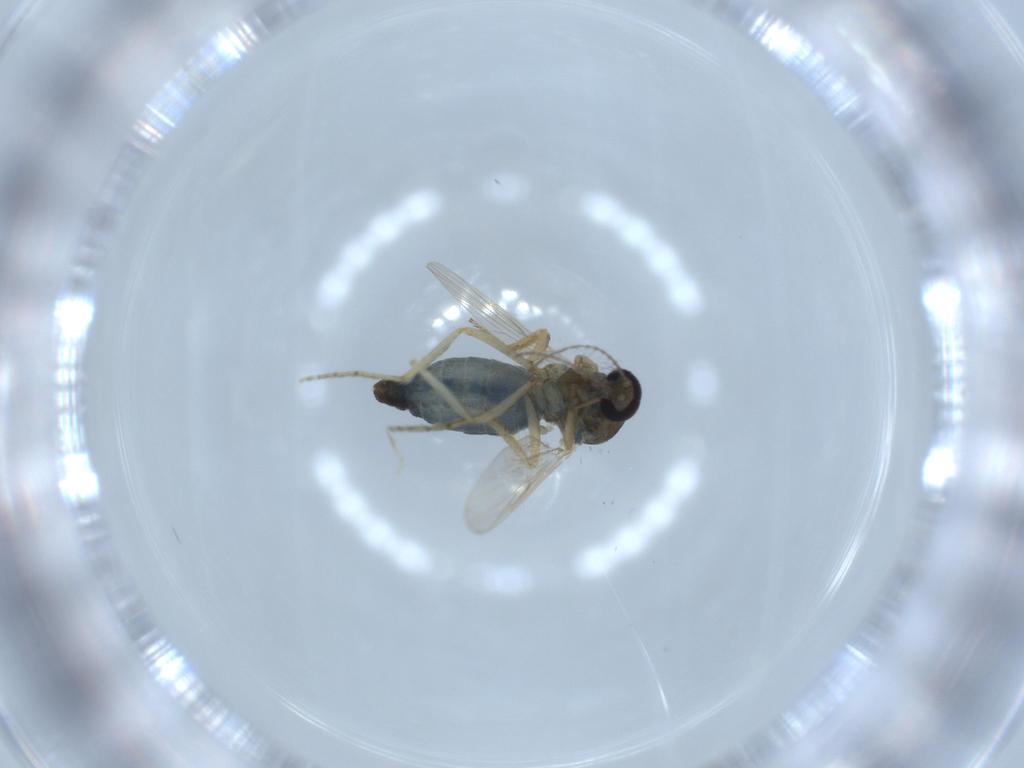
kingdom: Animalia
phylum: Arthropoda
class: Insecta
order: Diptera
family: Ceratopogonidae
